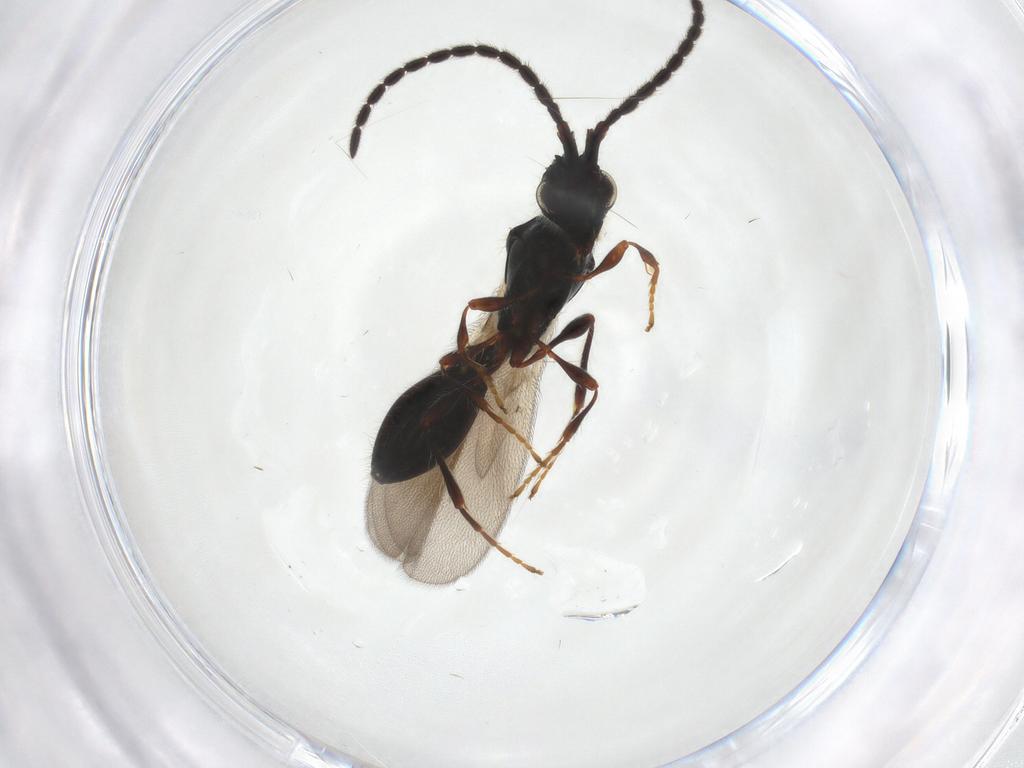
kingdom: Animalia
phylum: Arthropoda
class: Insecta
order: Hymenoptera
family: Diapriidae
